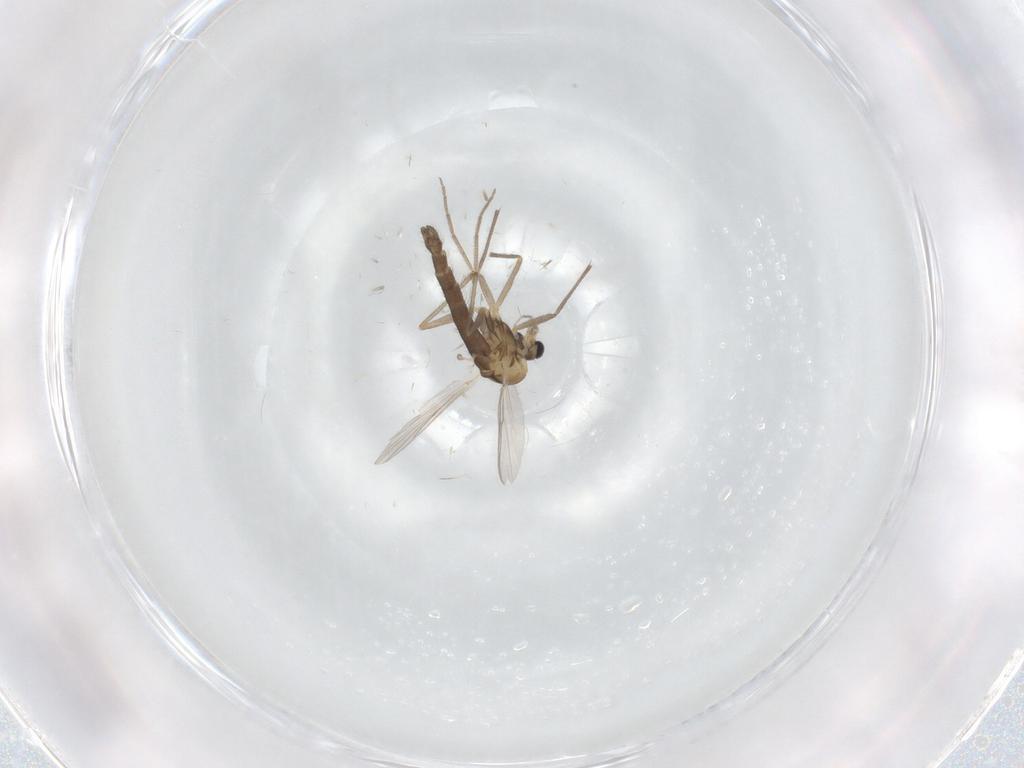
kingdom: Animalia
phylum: Arthropoda
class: Insecta
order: Diptera
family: Chironomidae
